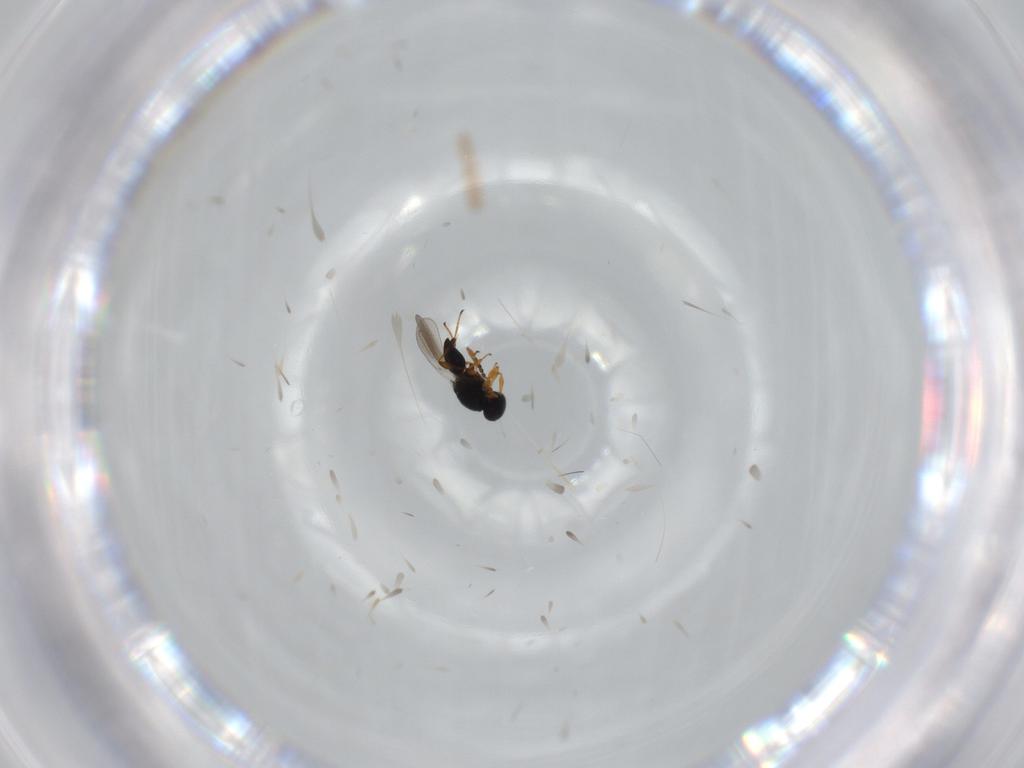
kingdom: Animalia
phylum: Arthropoda
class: Insecta
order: Hymenoptera
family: Platygastridae
